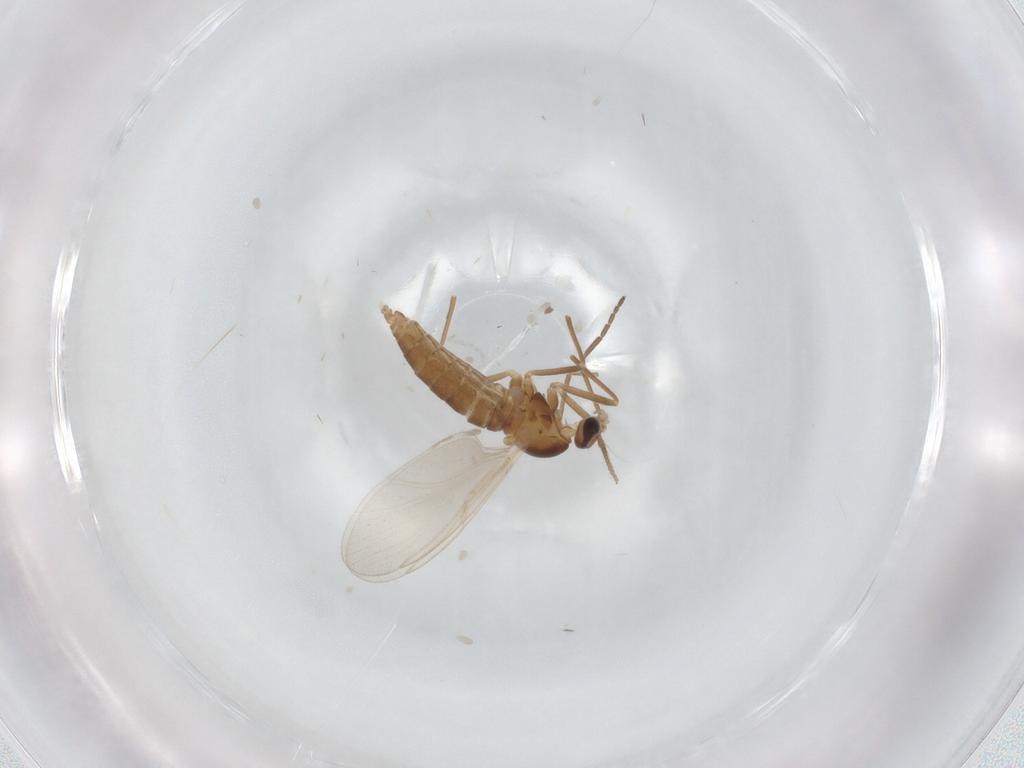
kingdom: Animalia
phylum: Arthropoda
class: Insecta
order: Diptera
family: Cecidomyiidae
